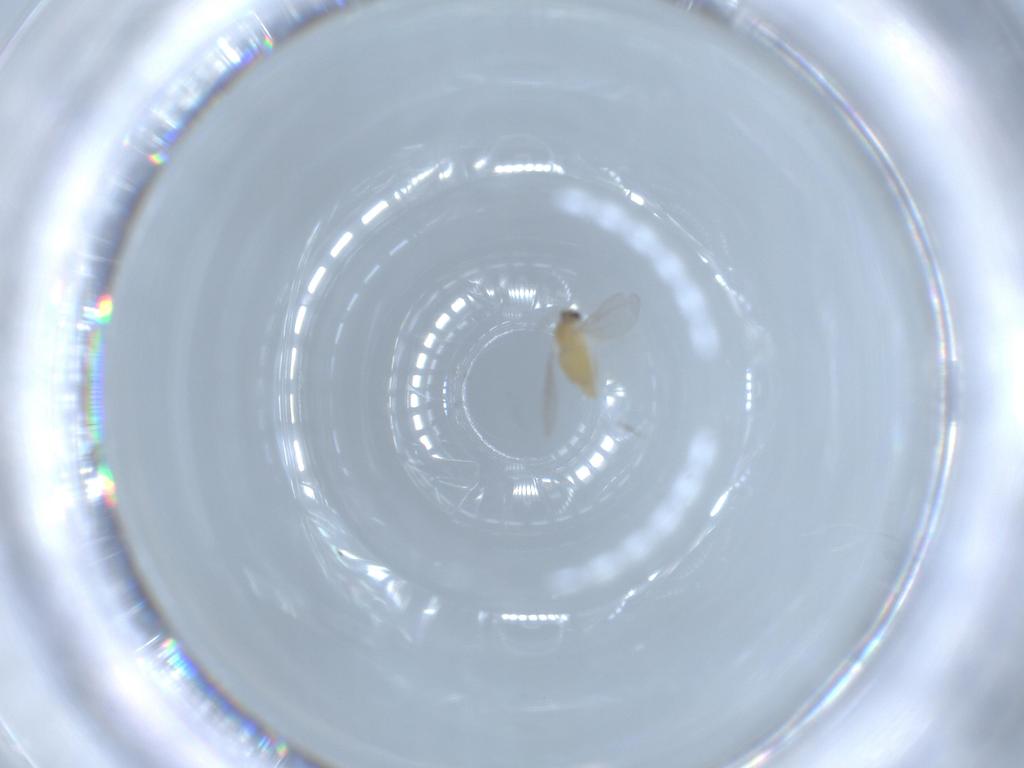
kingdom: Animalia
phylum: Arthropoda
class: Insecta
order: Diptera
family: Cecidomyiidae
